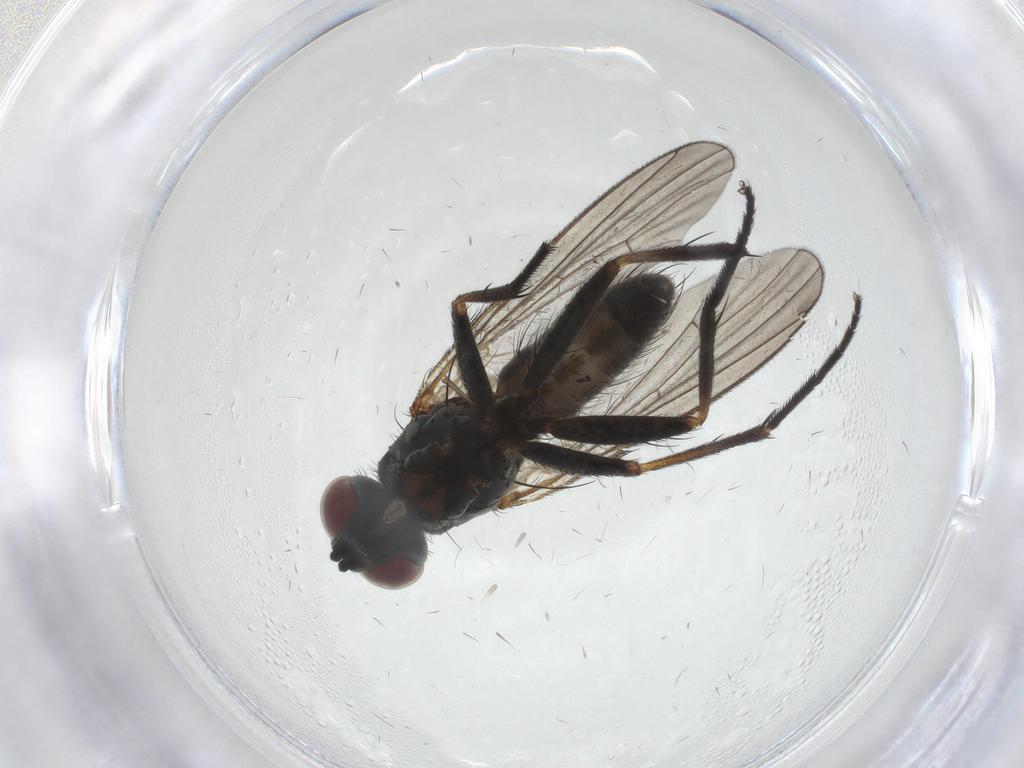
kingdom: Animalia
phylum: Arthropoda
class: Insecta
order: Diptera
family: Muscidae
